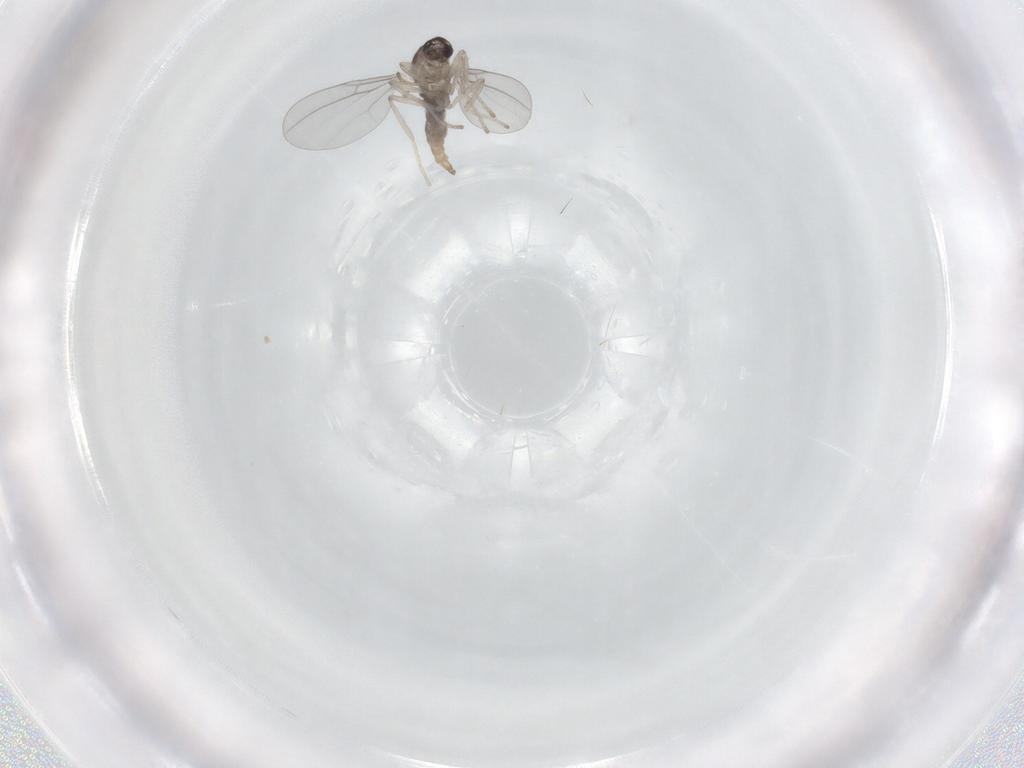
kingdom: Animalia
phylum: Arthropoda
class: Insecta
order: Diptera
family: Cecidomyiidae
